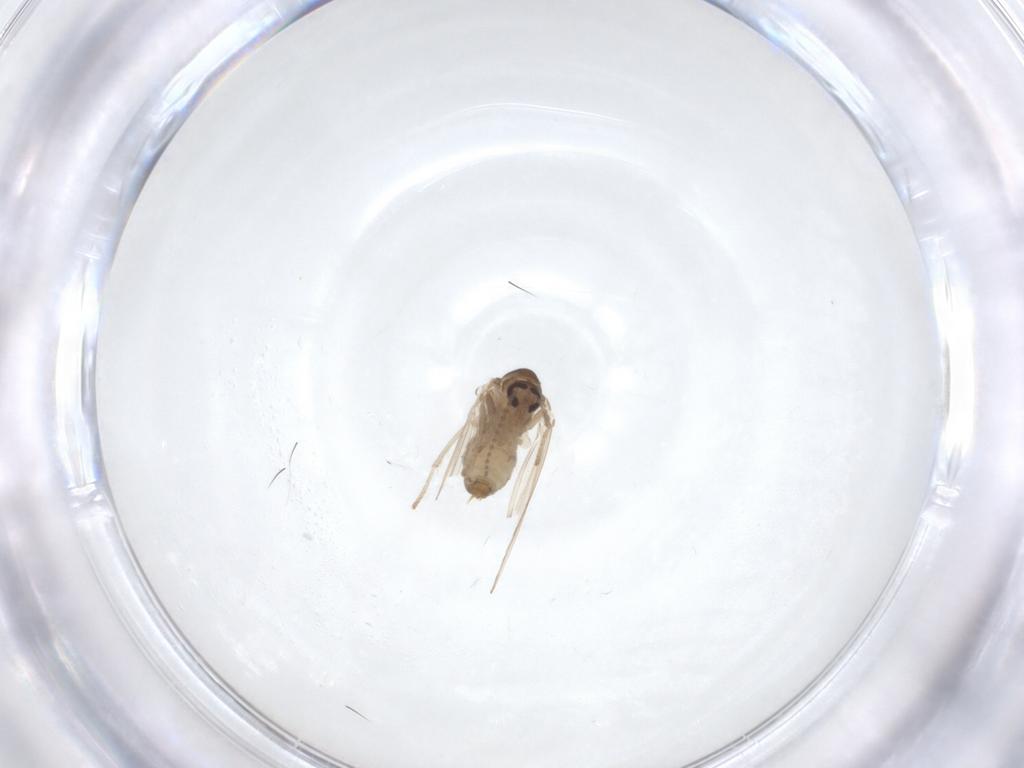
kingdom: Animalia
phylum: Arthropoda
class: Insecta
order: Diptera
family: Psychodidae
